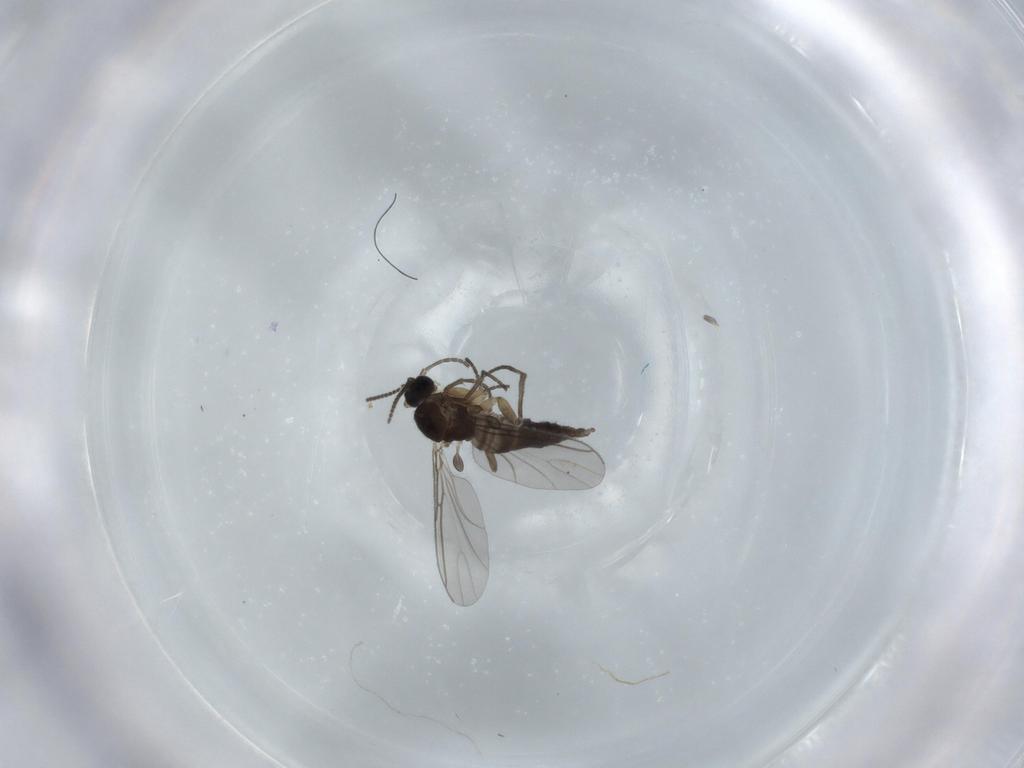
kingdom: Animalia
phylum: Arthropoda
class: Insecta
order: Diptera
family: Sciaridae
